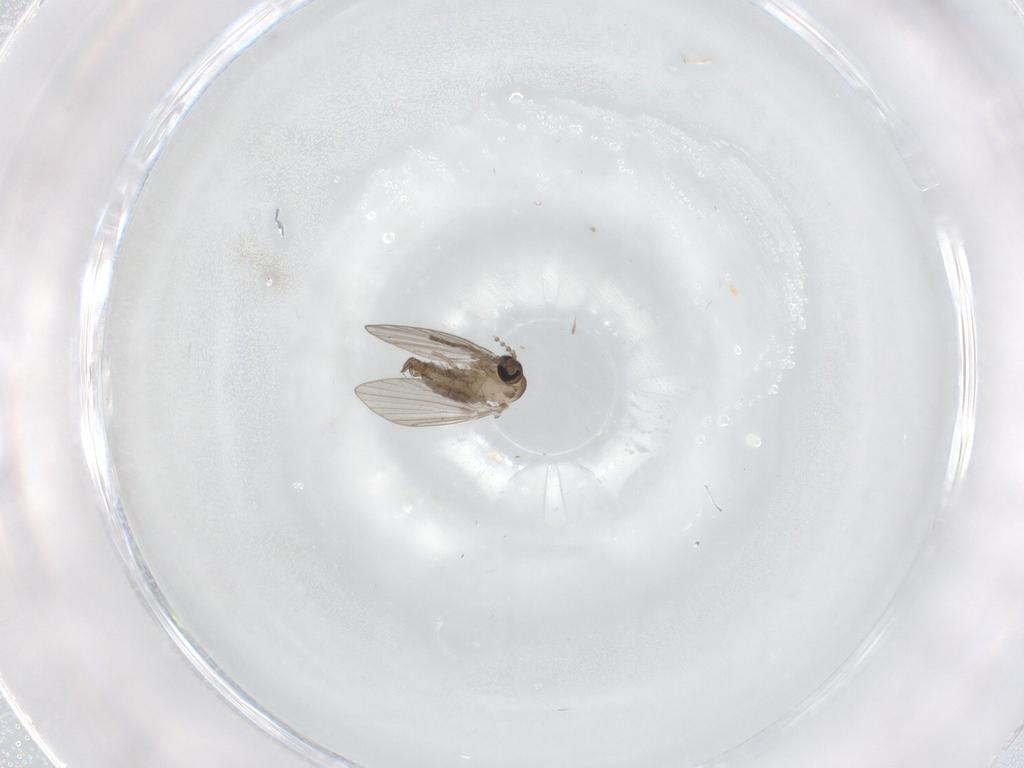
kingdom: Animalia
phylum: Arthropoda
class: Insecta
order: Diptera
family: Psychodidae
